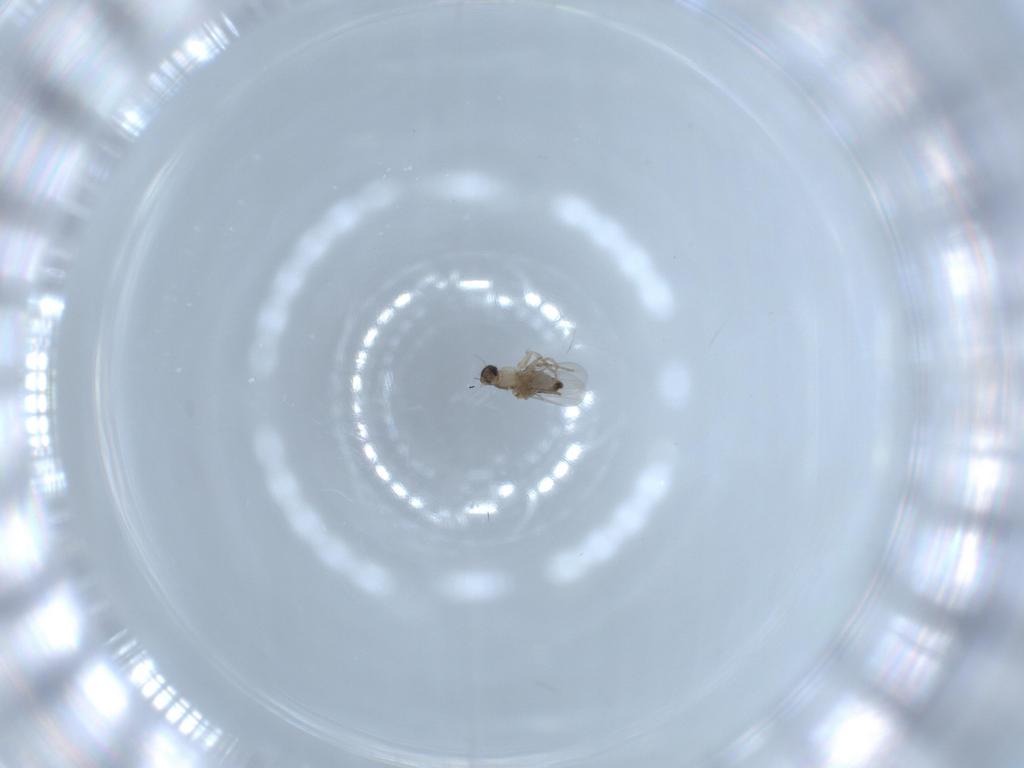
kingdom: Animalia
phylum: Arthropoda
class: Insecta
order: Diptera
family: Phoridae
